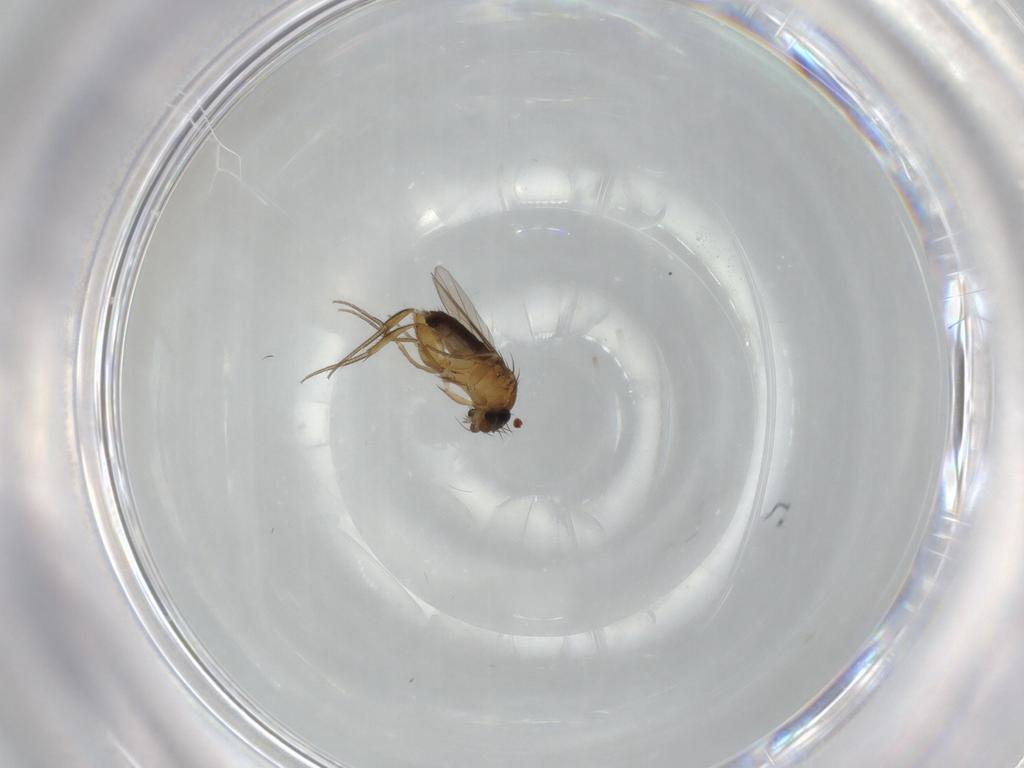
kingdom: Animalia
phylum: Arthropoda
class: Insecta
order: Diptera
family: Phoridae
